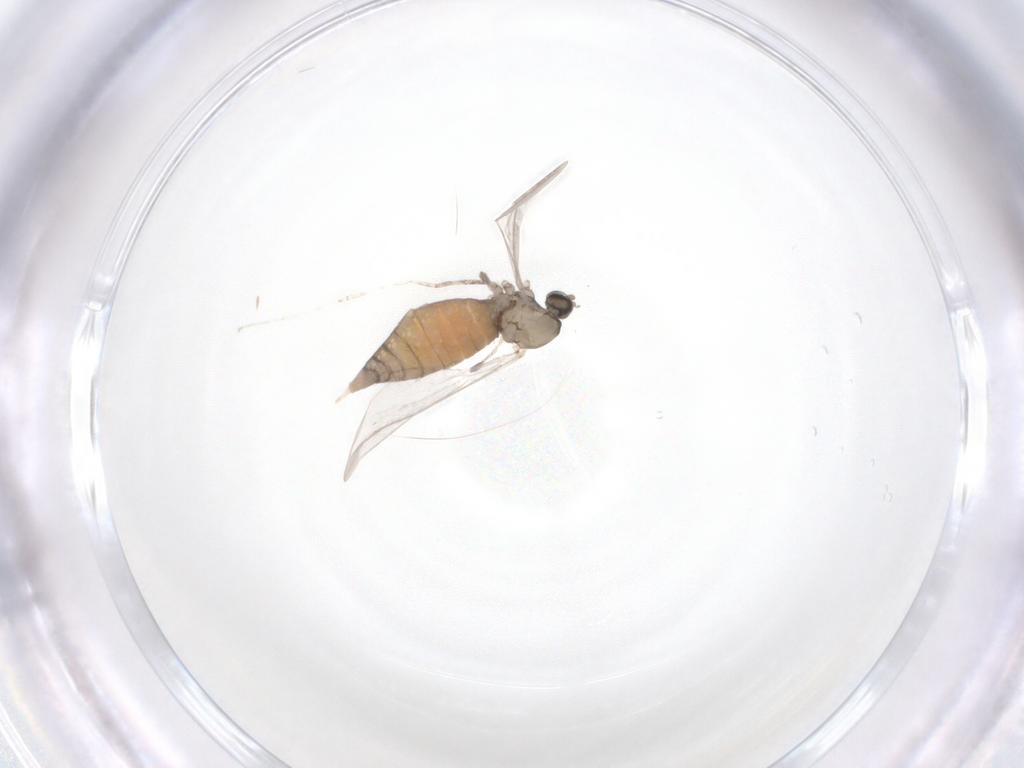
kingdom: Animalia
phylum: Arthropoda
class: Insecta
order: Diptera
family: Cecidomyiidae
